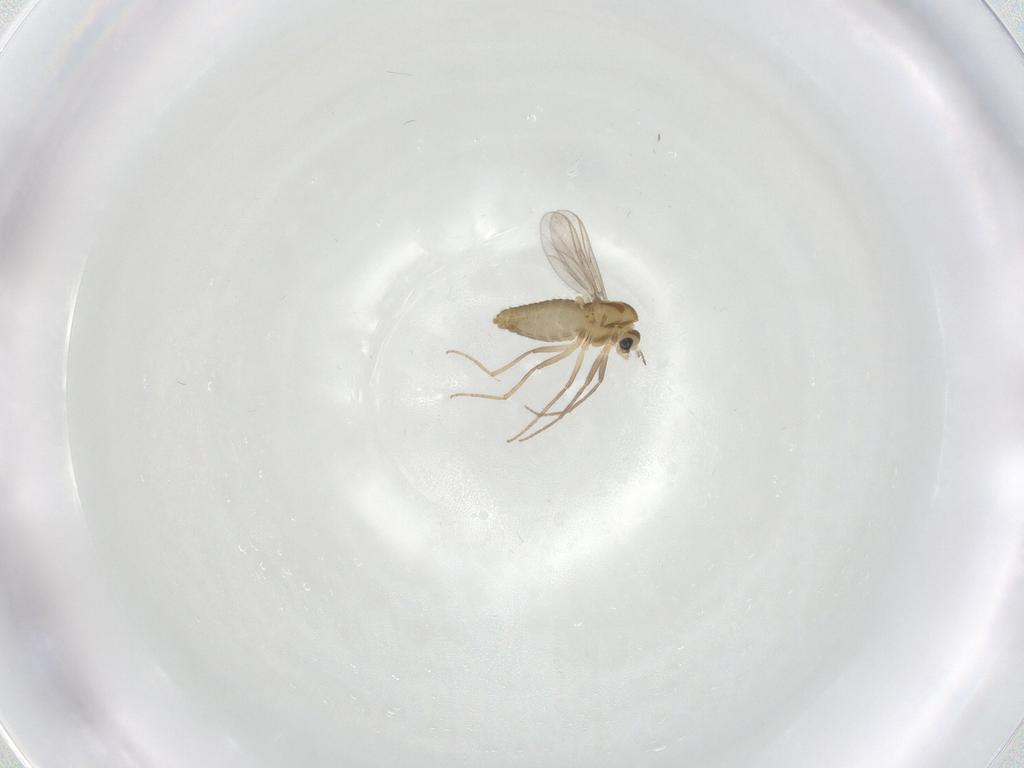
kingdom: Animalia
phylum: Arthropoda
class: Insecta
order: Diptera
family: Chironomidae
